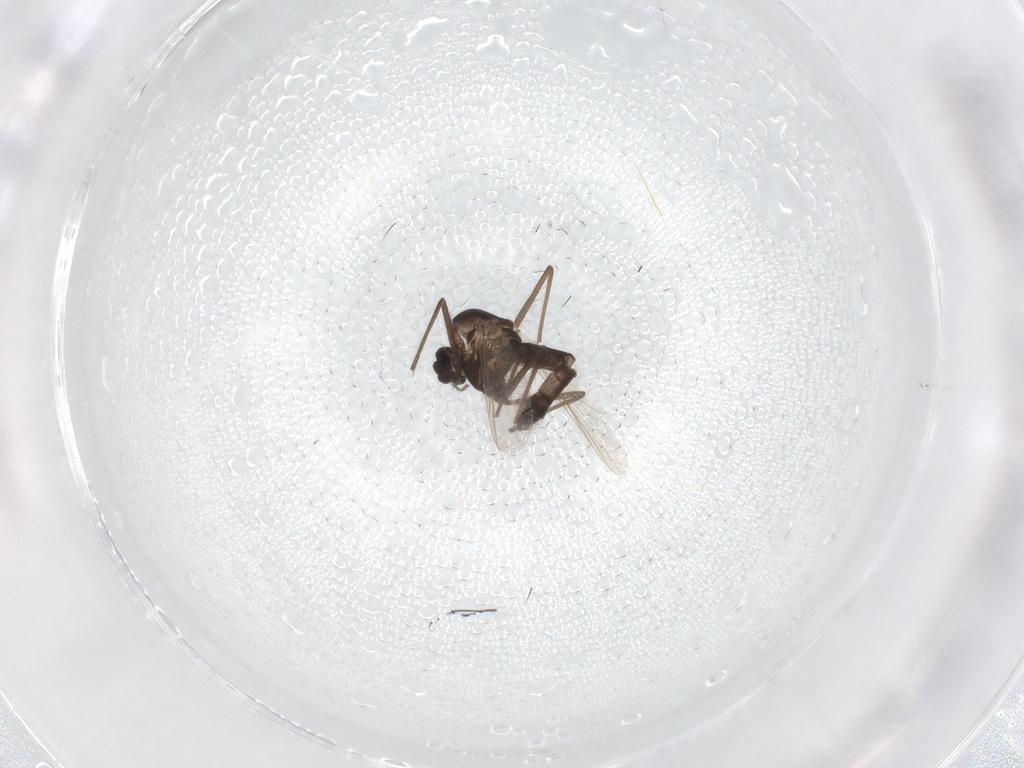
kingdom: Animalia
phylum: Arthropoda
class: Insecta
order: Diptera
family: Chironomidae
